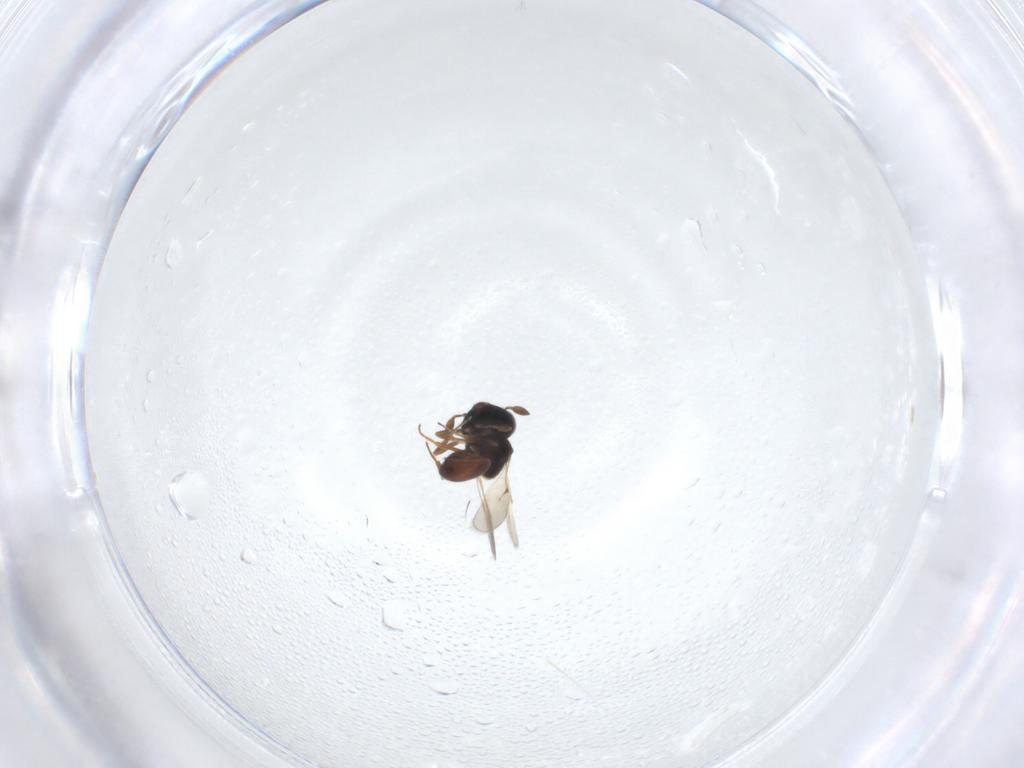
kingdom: Animalia
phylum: Arthropoda
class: Insecta
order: Hymenoptera
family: Scelionidae
